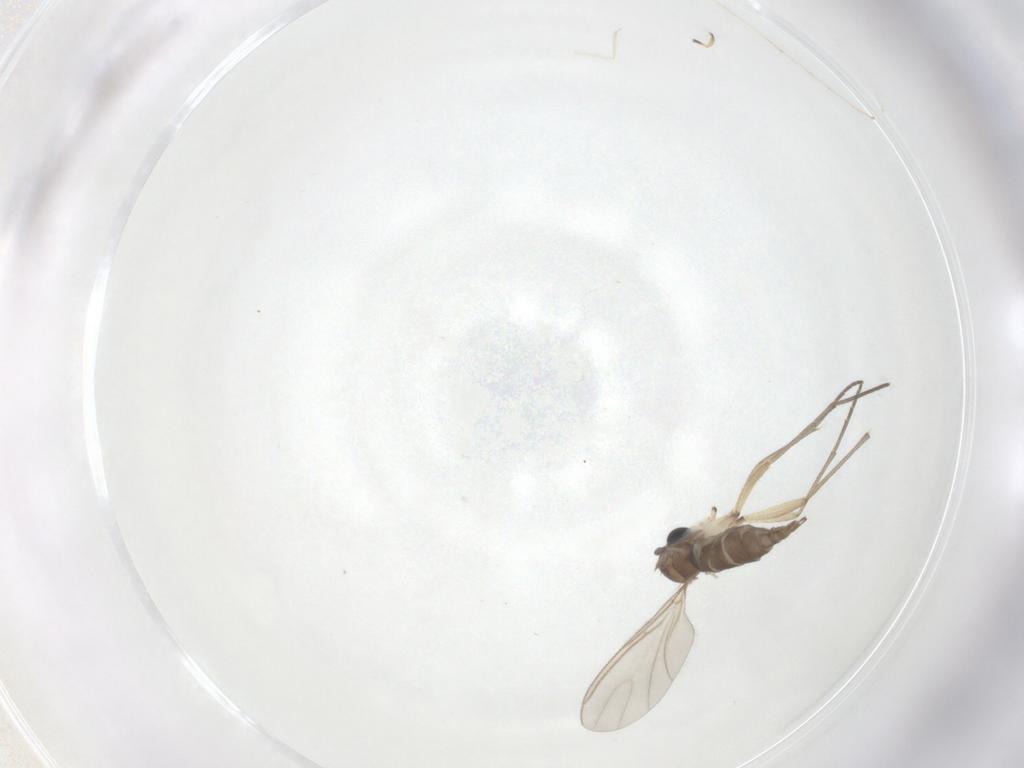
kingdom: Animalia
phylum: Arthropoda
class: Insecta
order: Diptera
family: Sciaridae
